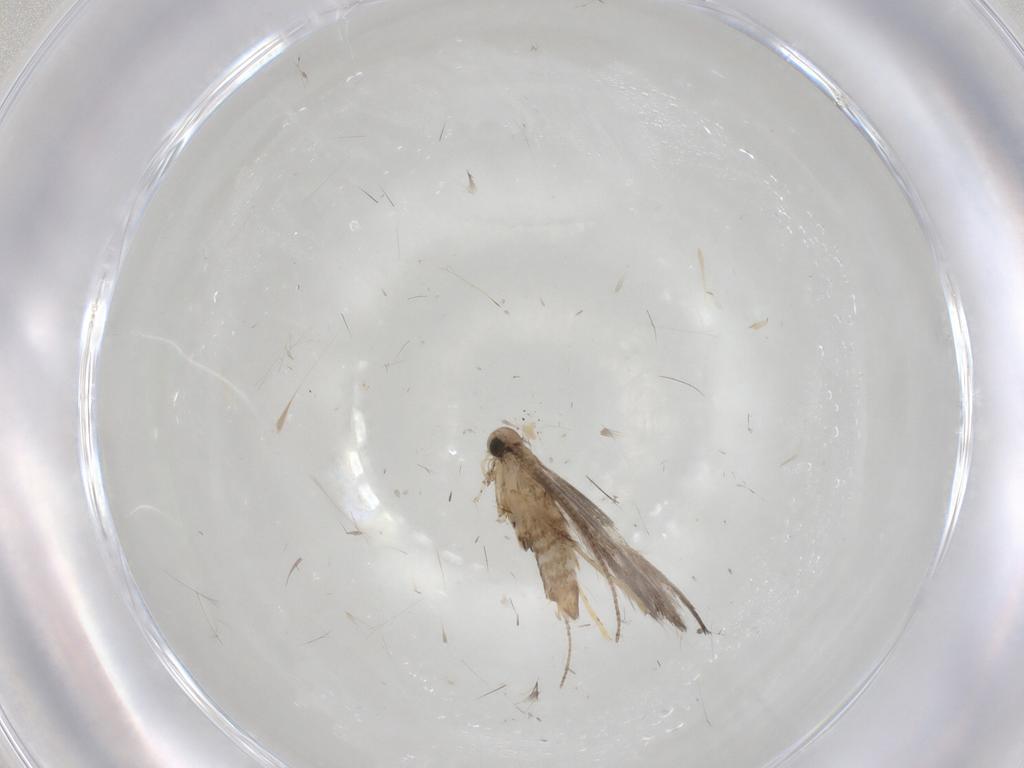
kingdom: Animalia
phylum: Arthropoda
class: Insecta
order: Lepidoptera
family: Gracillariidae
